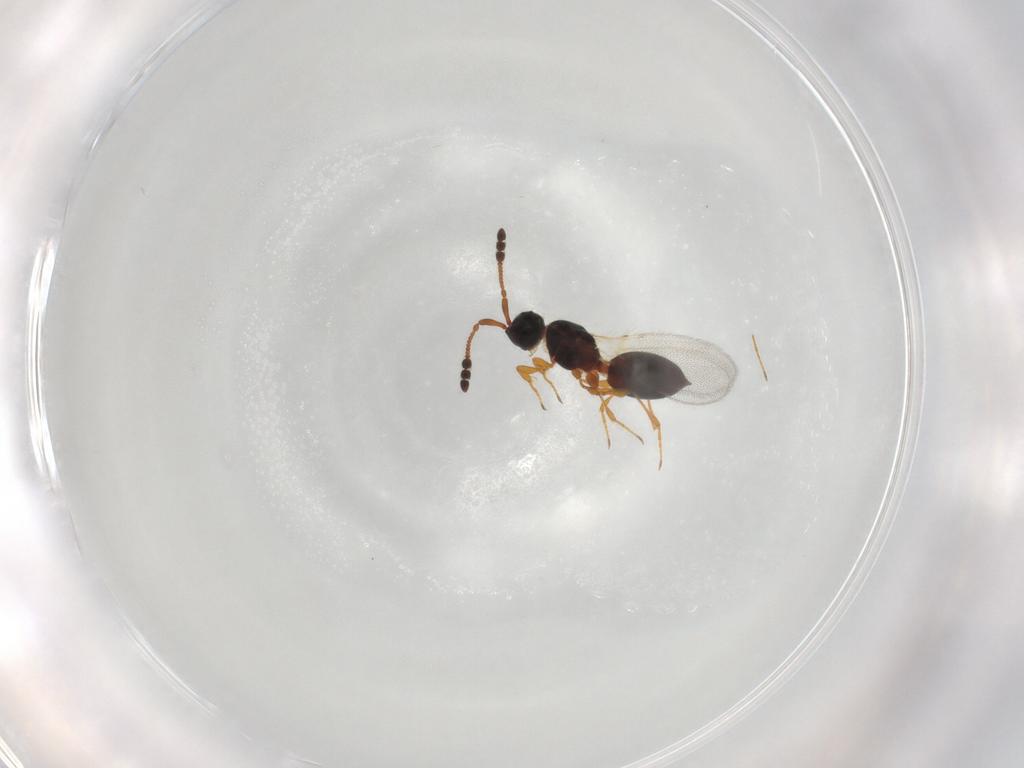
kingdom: Animalia
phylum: Arthropoda
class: Insecta
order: Hymenoptera
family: Diapriidae
